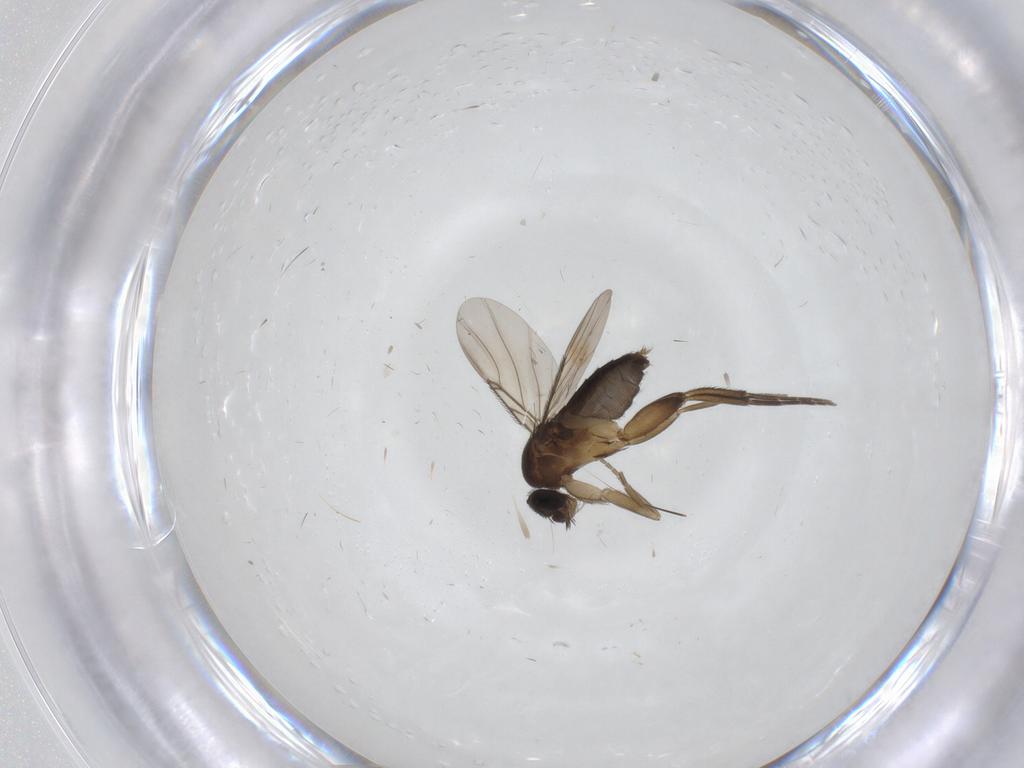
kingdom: Animalia
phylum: Arthropoda
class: Insecta
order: Diptera
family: Phoridae
